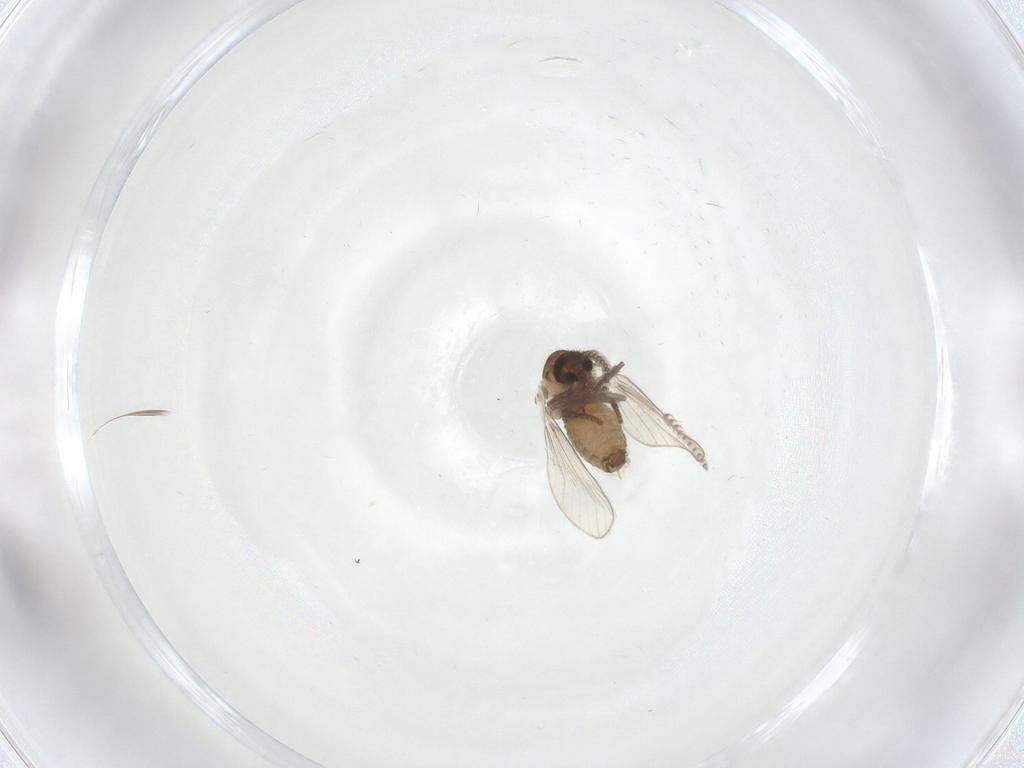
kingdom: Animalia
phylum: Arthropoda
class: Insecta
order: Diptera
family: Psychodidae
